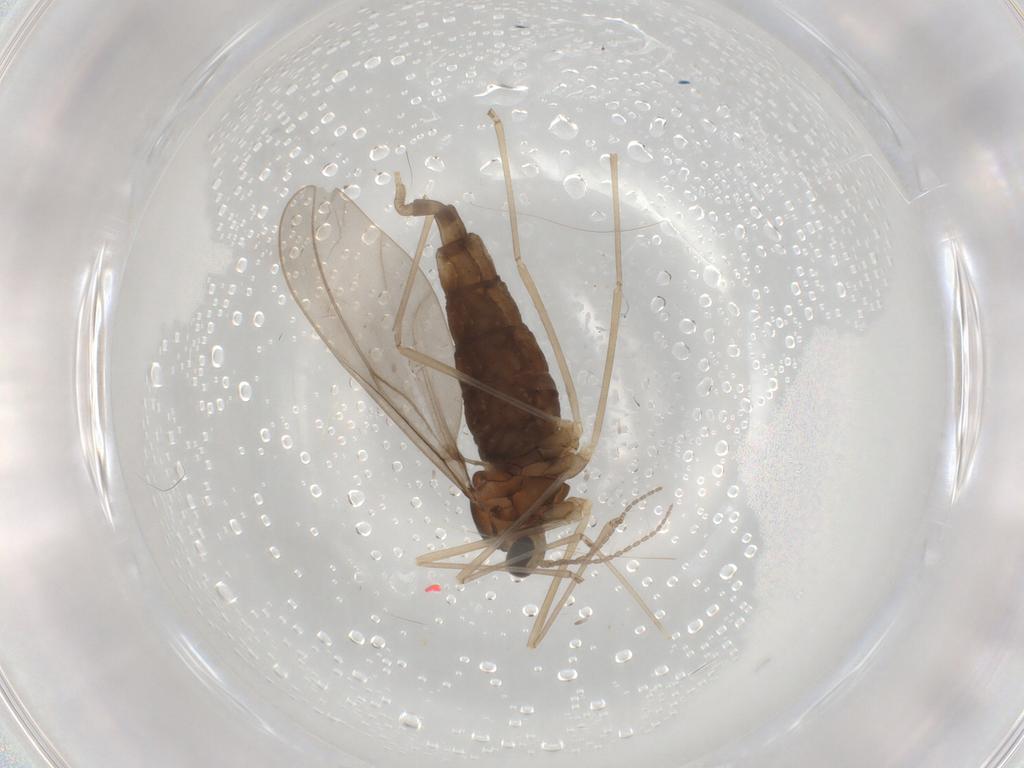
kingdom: Animalia
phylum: Arthropoda
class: Insecta
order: Diptera
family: Cecidomyiidae
